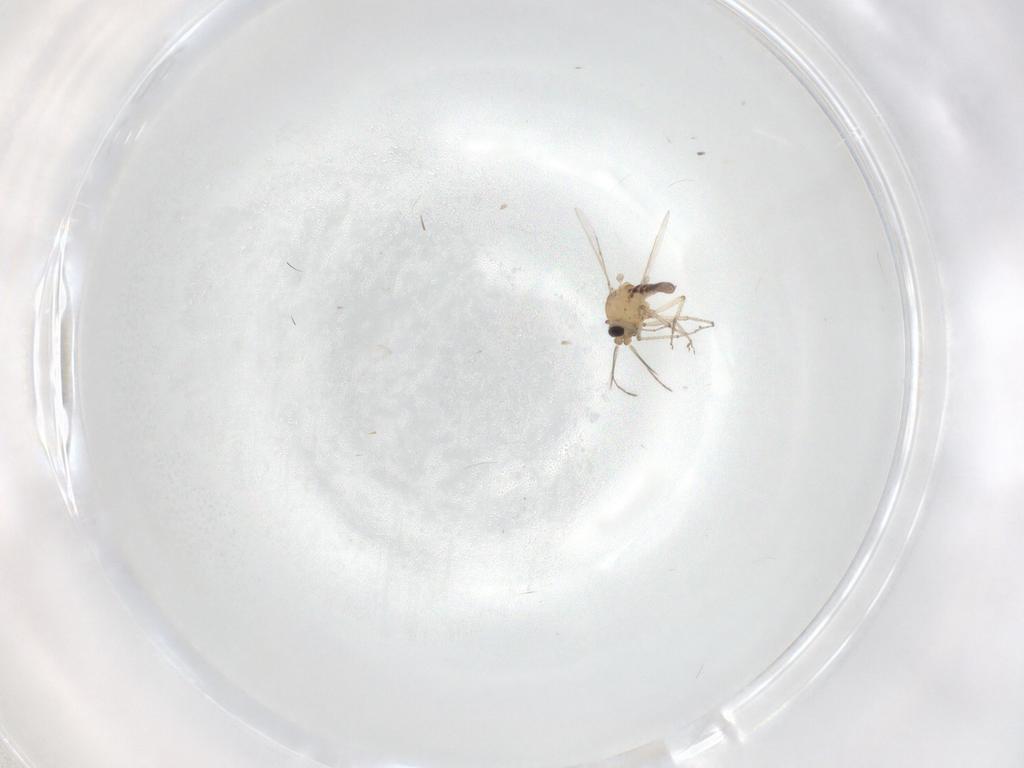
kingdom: Animalia
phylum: Arthropoda
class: Insecta
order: Diptera
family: Ceratopogonidae
